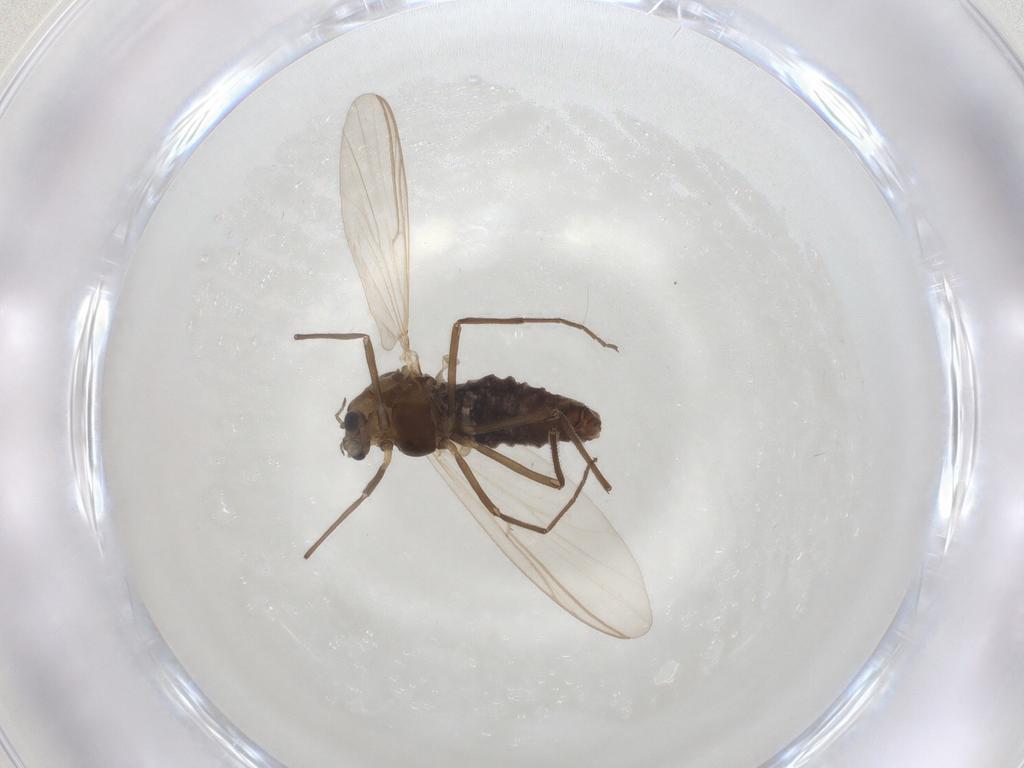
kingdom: Animalia
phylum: Arthropoda
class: Insecta
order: Diptera
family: Chironomidae
